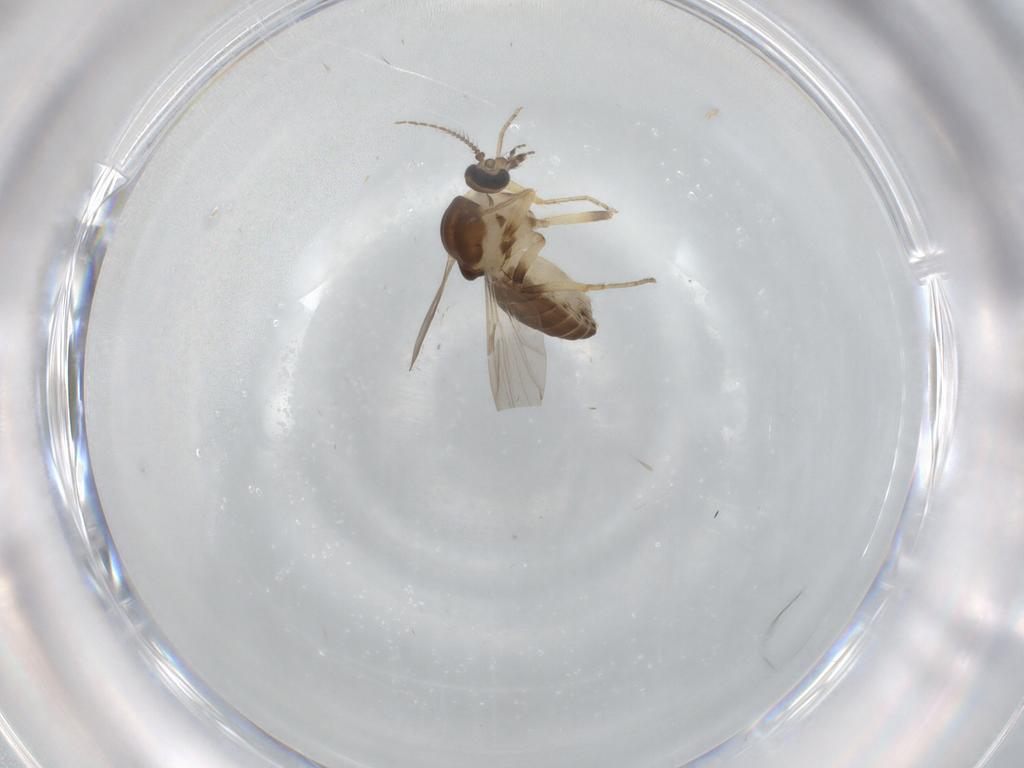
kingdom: Animalia
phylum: Arthropoda
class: Insecta
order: Diptera
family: Ceratopogonidae
